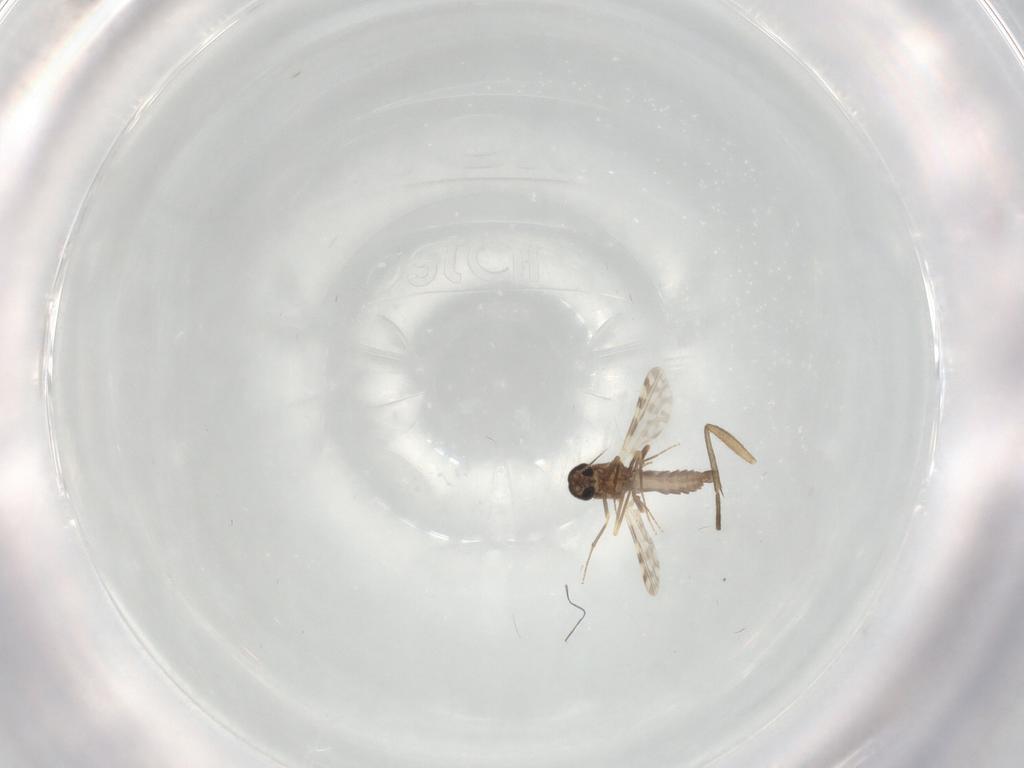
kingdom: Animalia
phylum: Arthropoda
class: Insecta
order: Diptera
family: Ceratopogonidae
